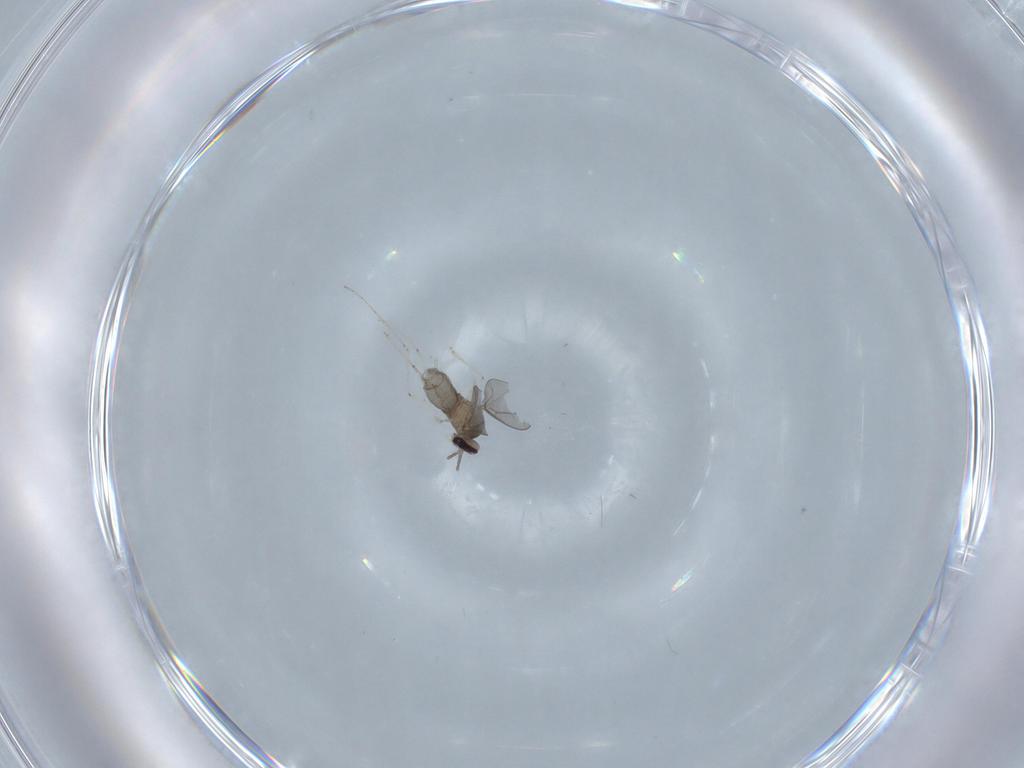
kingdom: Animalia
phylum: Arthropoda
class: Insecta
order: Diptera
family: Cecidomyiidae
